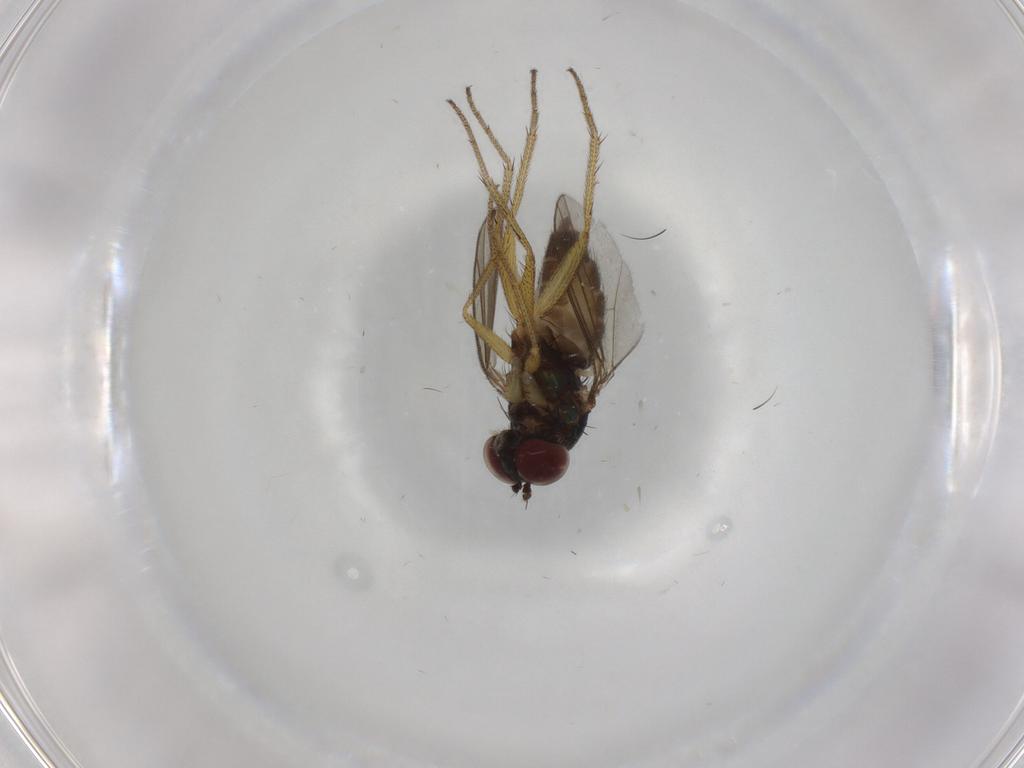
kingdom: Animalia
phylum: Arthropoda
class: Insecta
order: Diptera
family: Dolichopodidae
